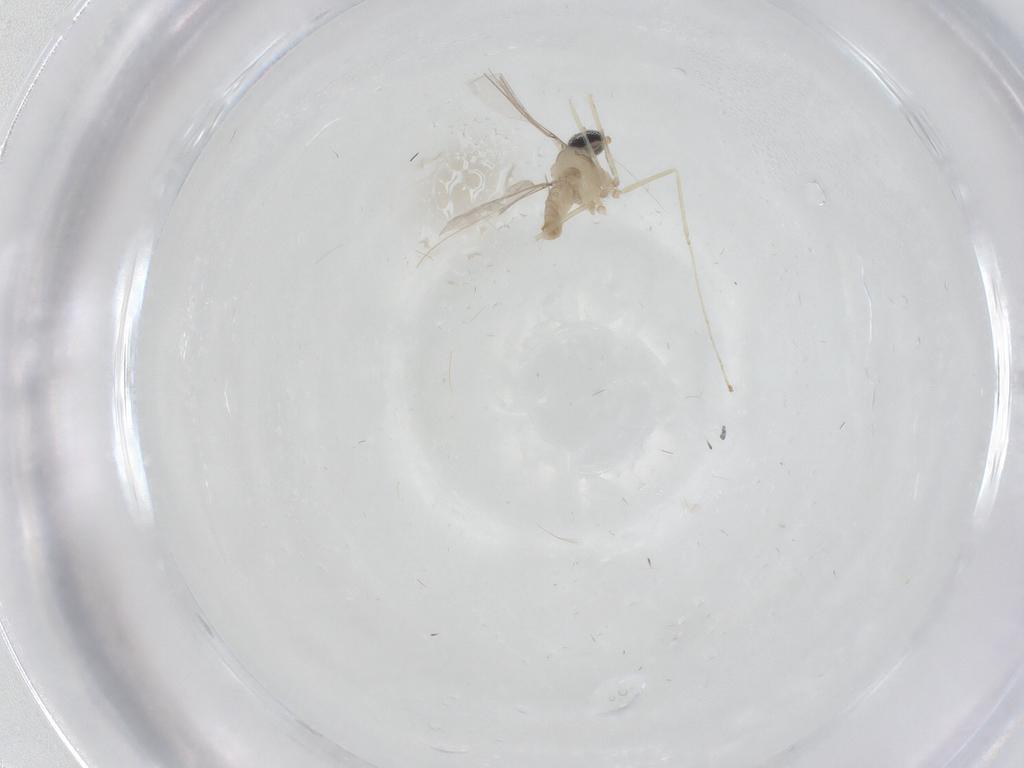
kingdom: Animalia
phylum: Arthropoda
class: Insecta
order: Diptera
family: Cecidomyiidae
